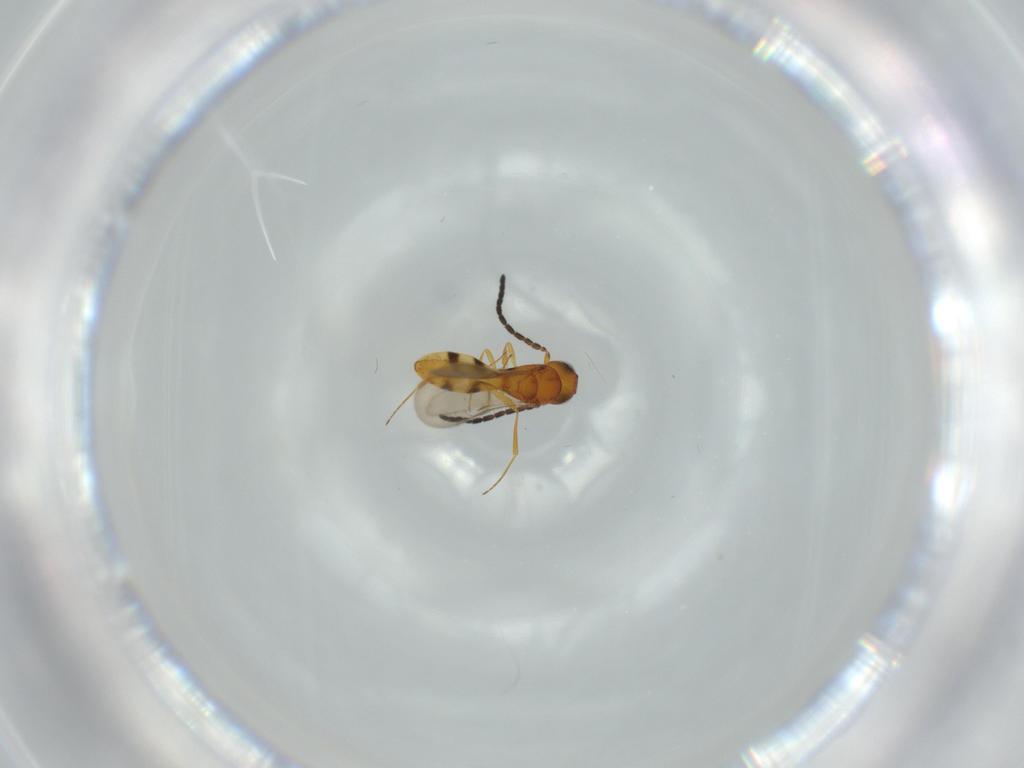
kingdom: Animalia
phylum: Arthropoda
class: Insecta
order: Hymenoptera
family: Scelionidae
